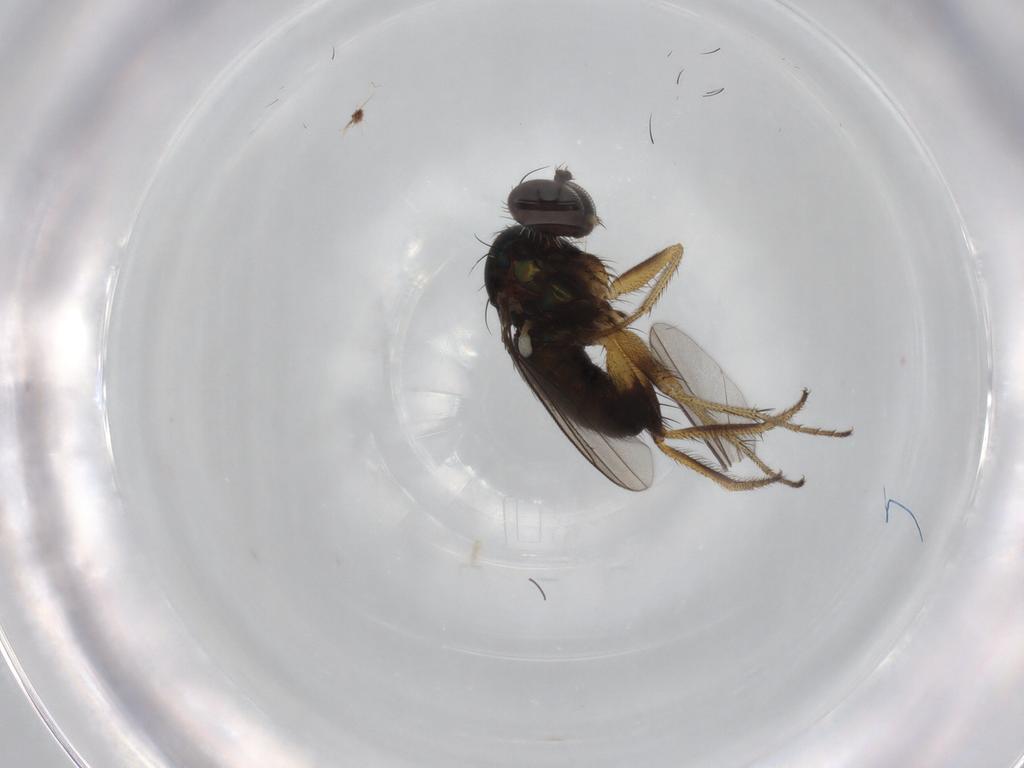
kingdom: Animalia
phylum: Arthropoda
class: Insecta
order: Diptera
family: Dolichopodidae
